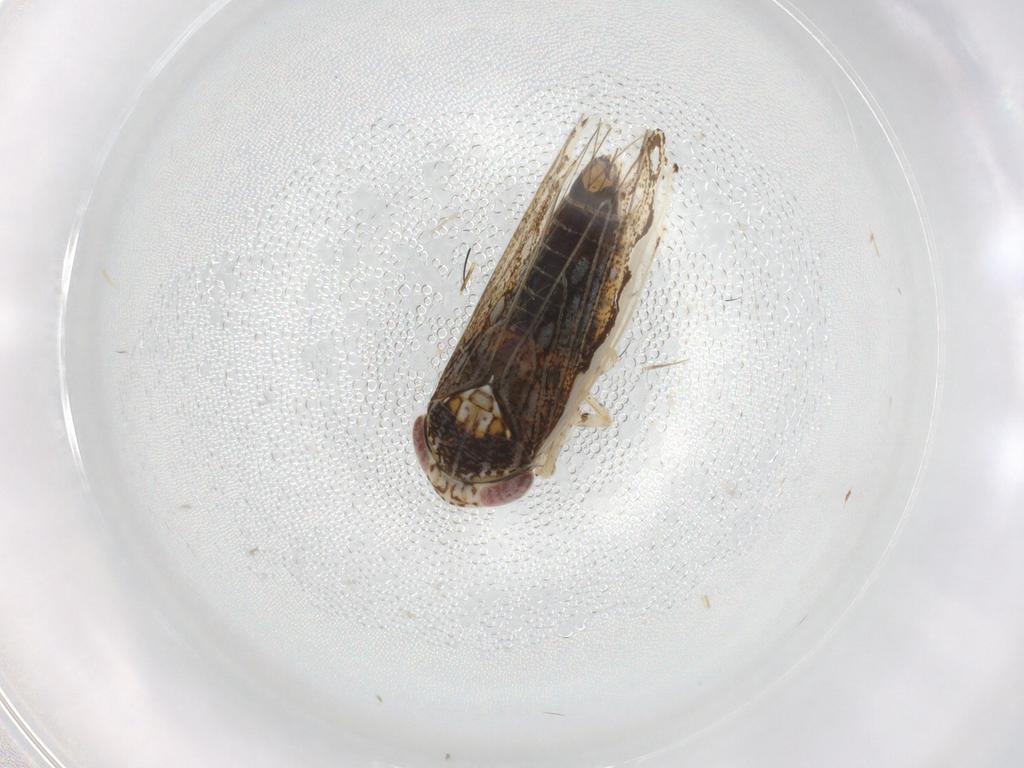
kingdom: Animalia
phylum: Arthropoda
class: Insecta
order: Hemiptera
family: Cicadellidae
